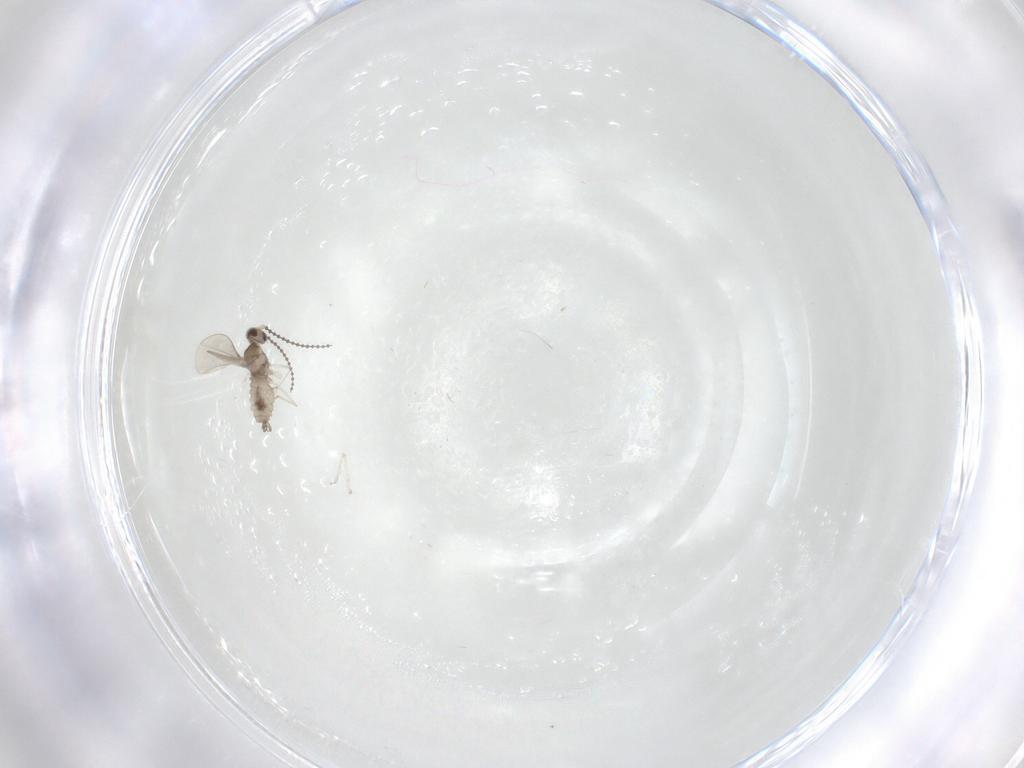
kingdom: Animalia
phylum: Arthropoda
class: Insecta
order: Diptera
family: Cecidomyiidae
